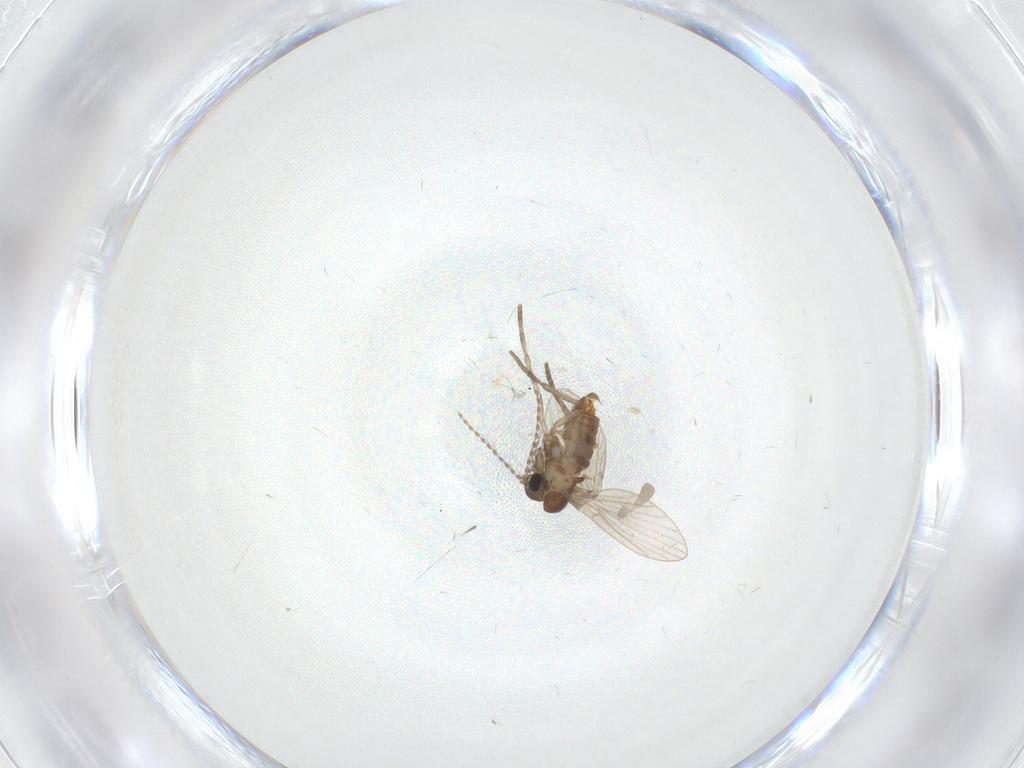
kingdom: Animalia
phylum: Arthropoda
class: Insecta
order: Diptera
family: Syrphidae
